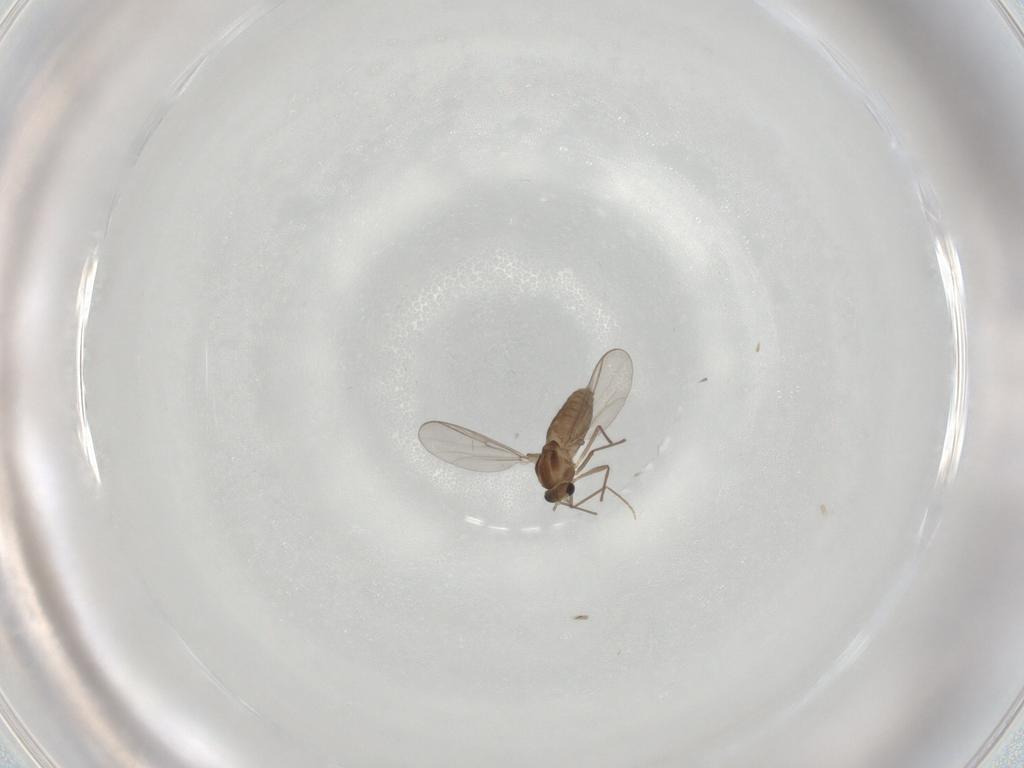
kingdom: Animalia
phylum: Arthropoda
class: Insecta
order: Diptera
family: Chironomidae
